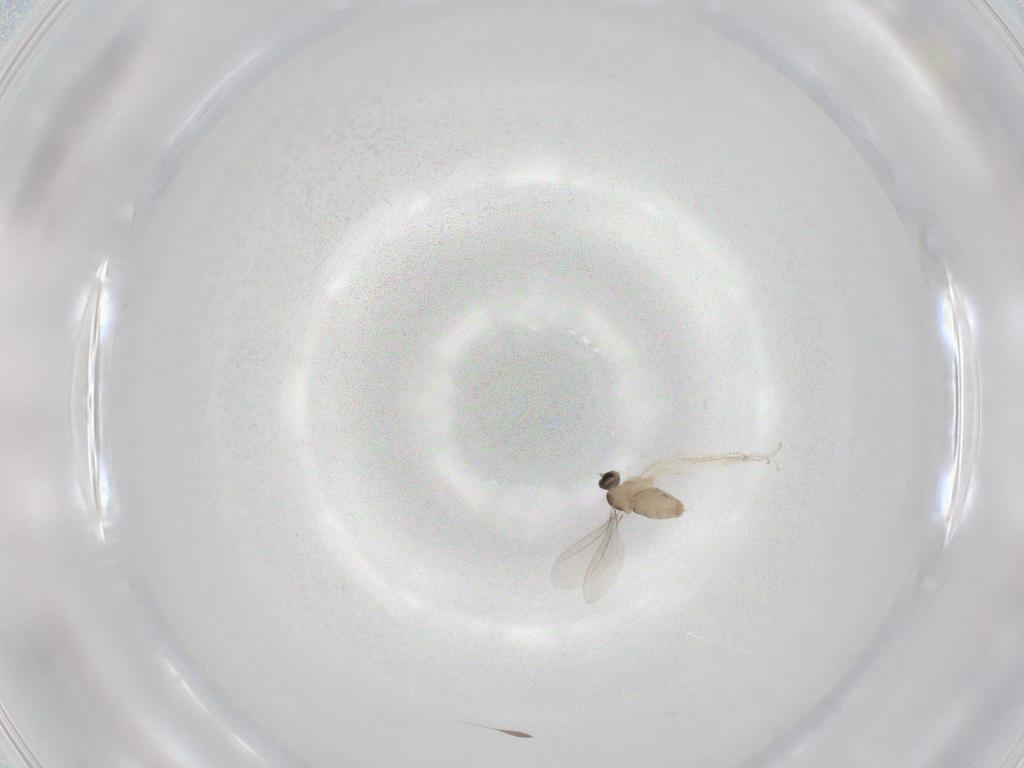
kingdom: Animalia
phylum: Arthropoda
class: Insecta
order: Diptera
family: Cecidomyiidae
